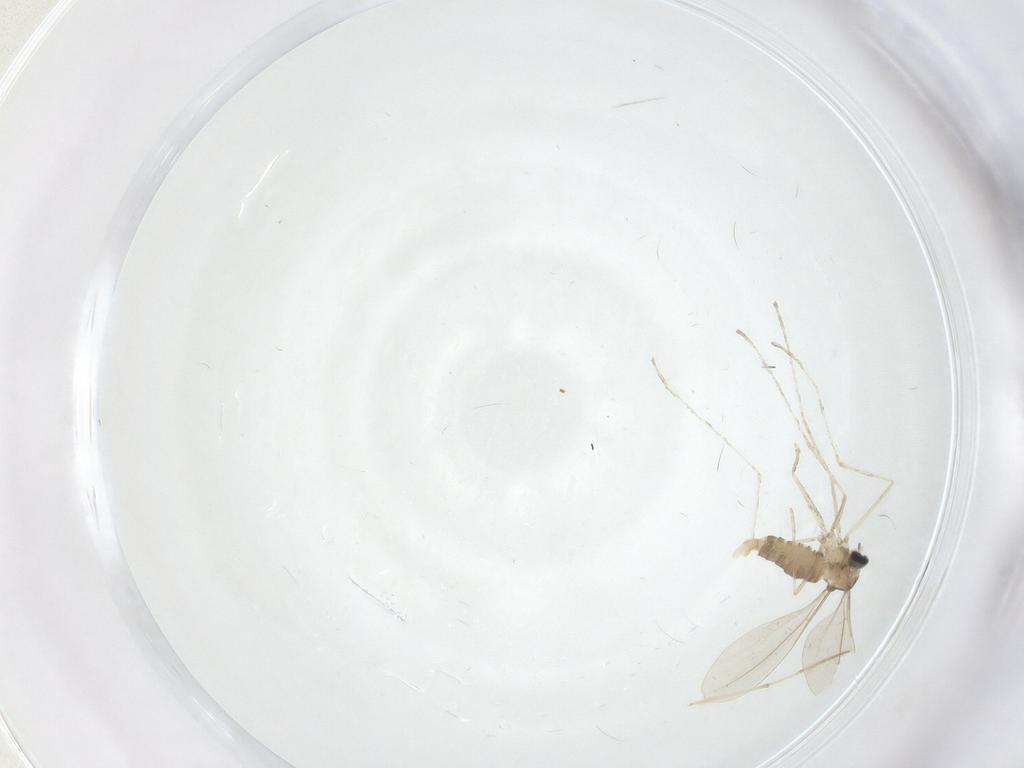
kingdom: Animalia
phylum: Arthropoda
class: Insecta
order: Diptera
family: Cecidomyiidae
